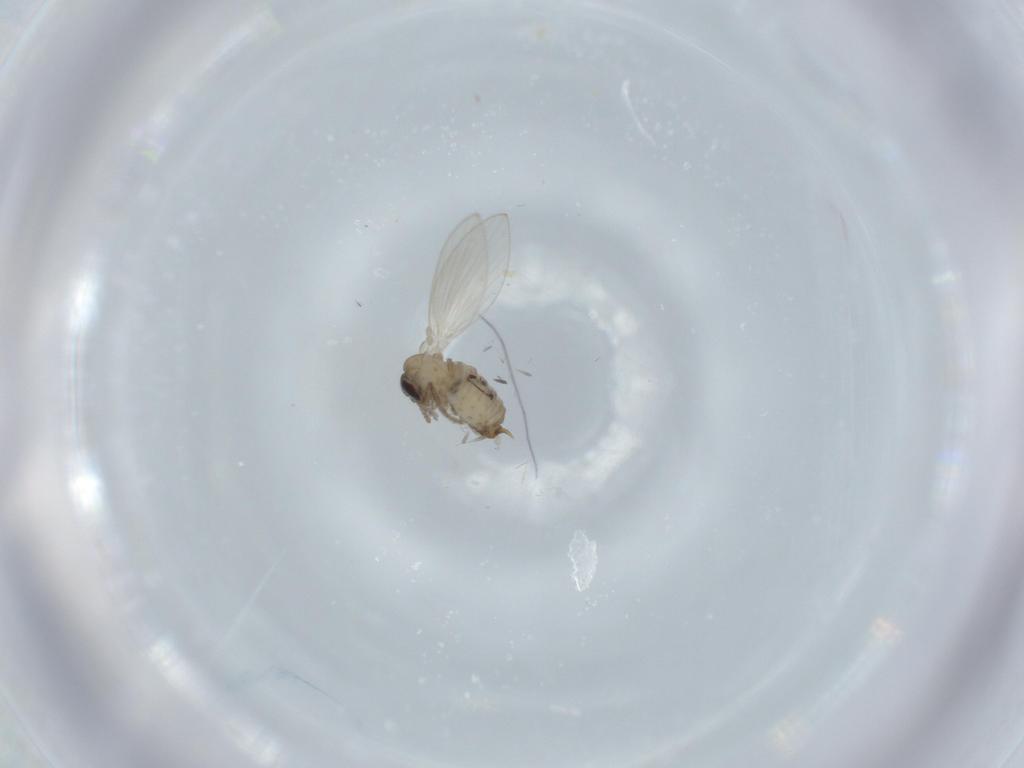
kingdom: Animalia
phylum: Arthropoda
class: Insecta
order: Diptera
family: Psychodidae
